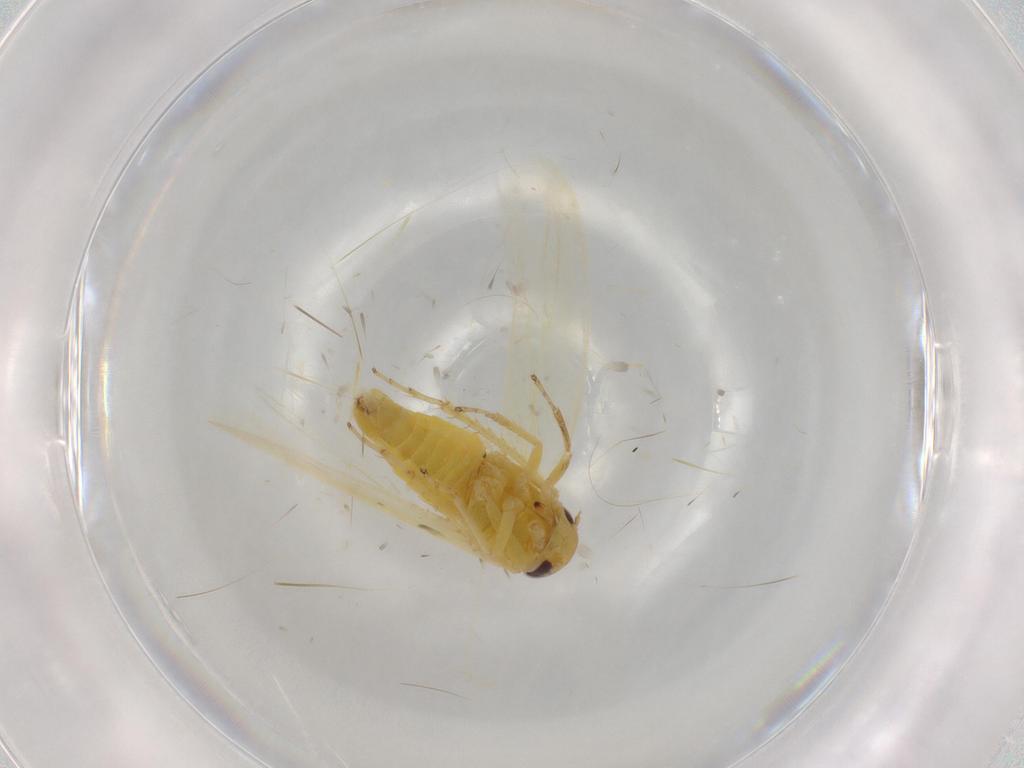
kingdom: Animalia
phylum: Arthropoda
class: Insecta
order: Hemiptera
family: Cicadellidae
